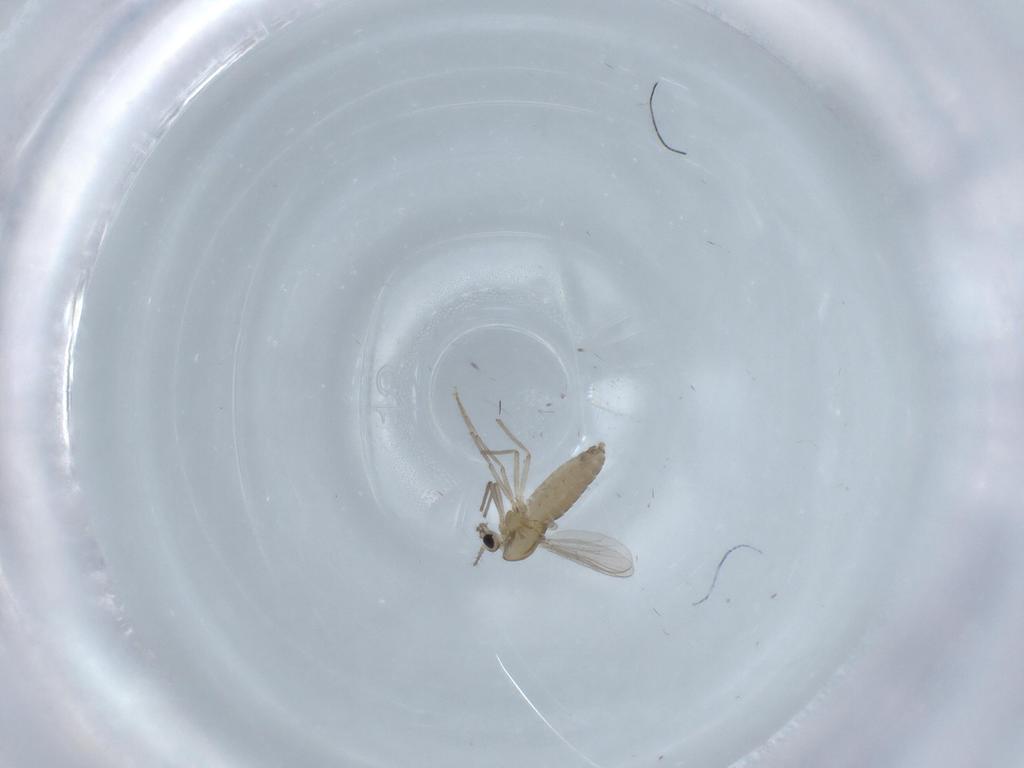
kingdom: Animalia
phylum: Arthropoda
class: Insecta
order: Diptera
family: Chironomidae
